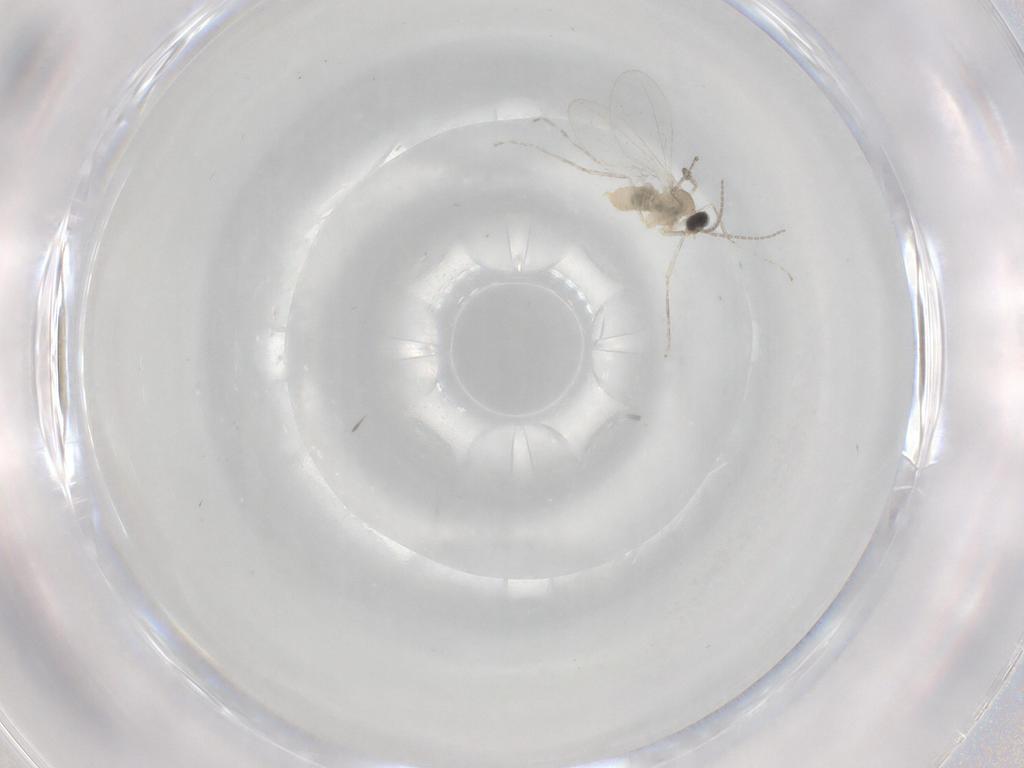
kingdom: Animalia
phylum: Arthropoda
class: Insecta
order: Diptera
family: Cecidomyiidae
